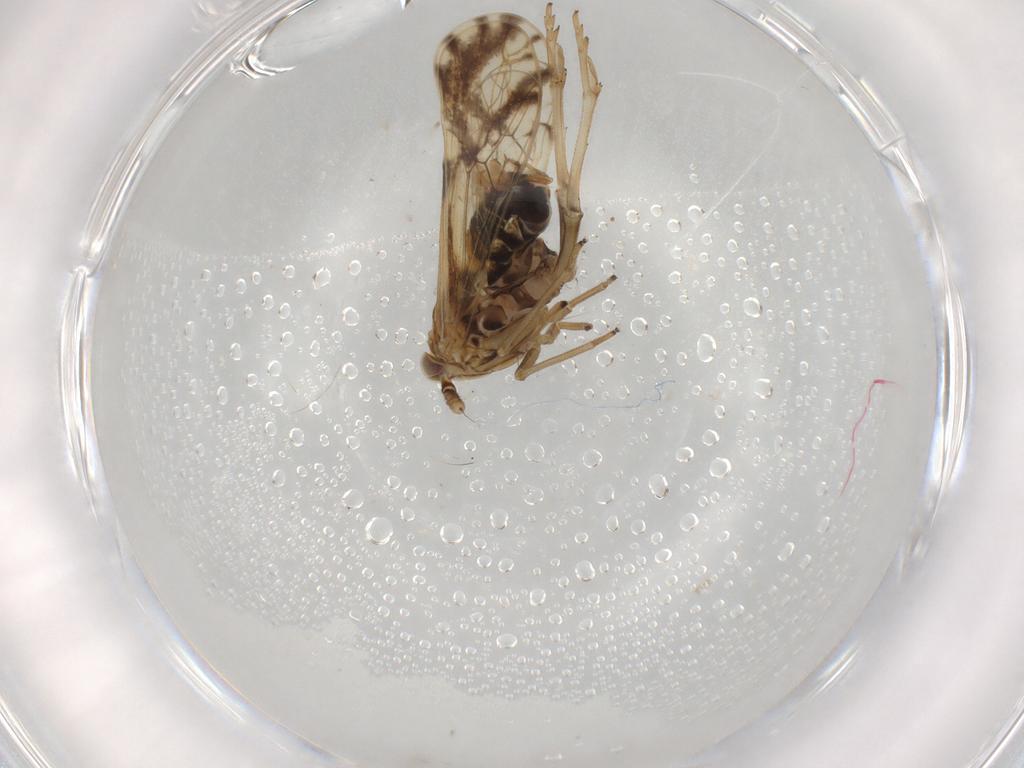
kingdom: Animalia
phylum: Arthropoda
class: Insecta
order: Hemiptera
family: Delphacidae
